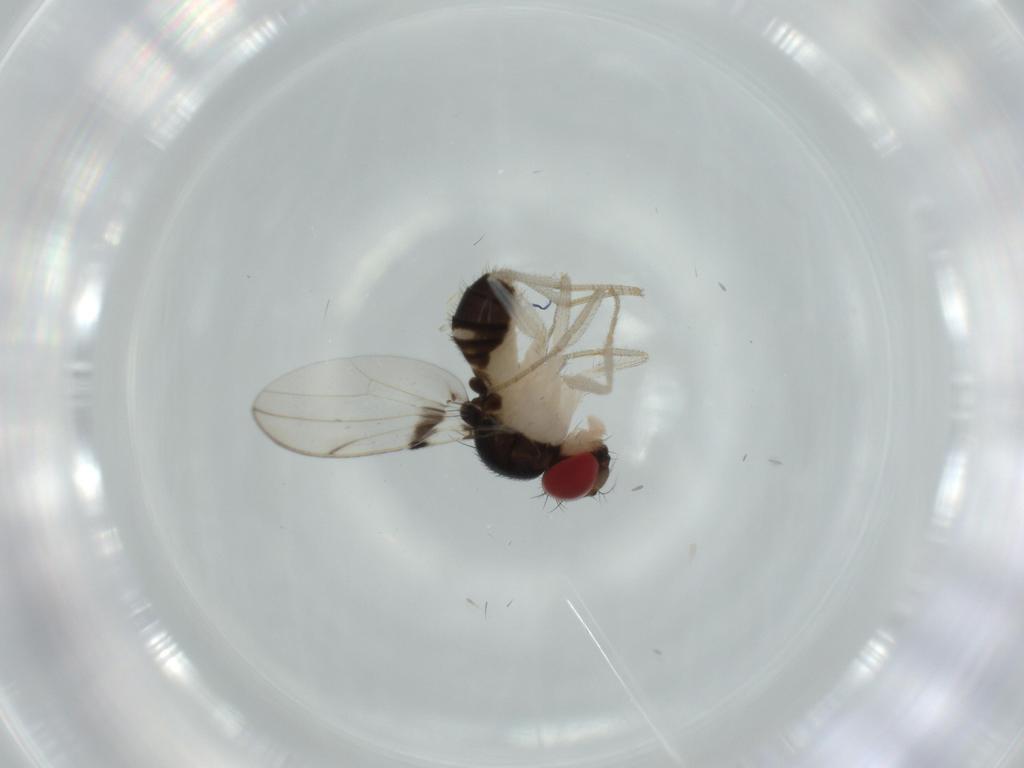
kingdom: Animalia
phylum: Arthropoda
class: Insecta
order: Diptera
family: Drosophilidae
